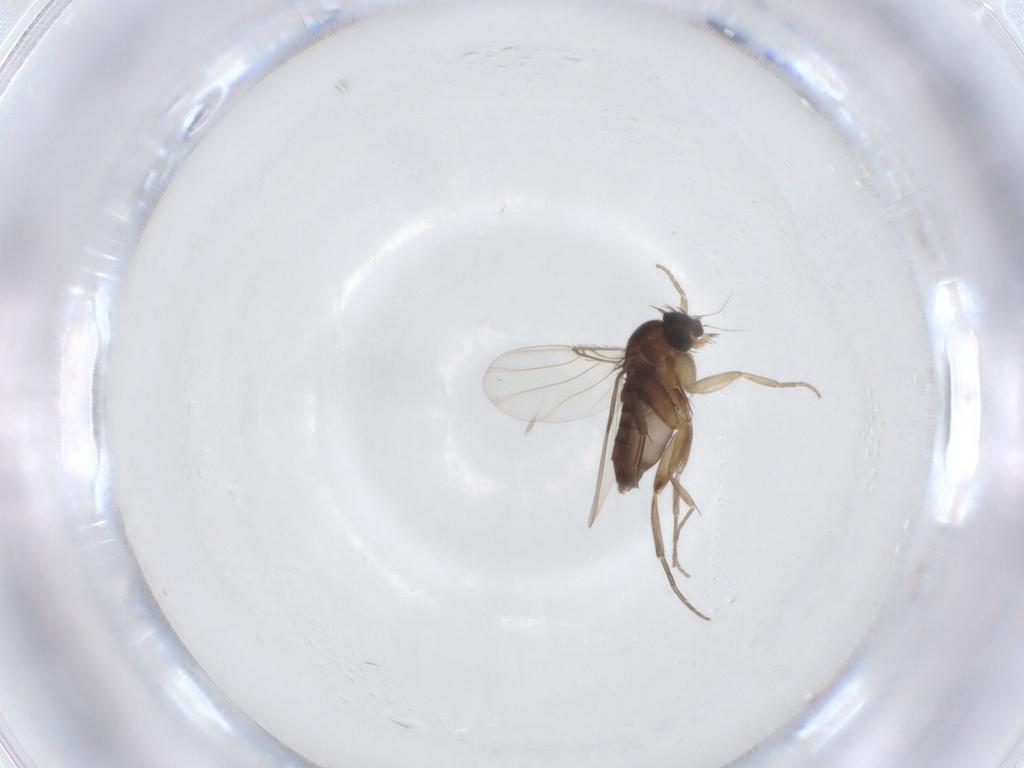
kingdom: Animalia
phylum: Arthropoda
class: Insecta
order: Diptera
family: Phoridae
